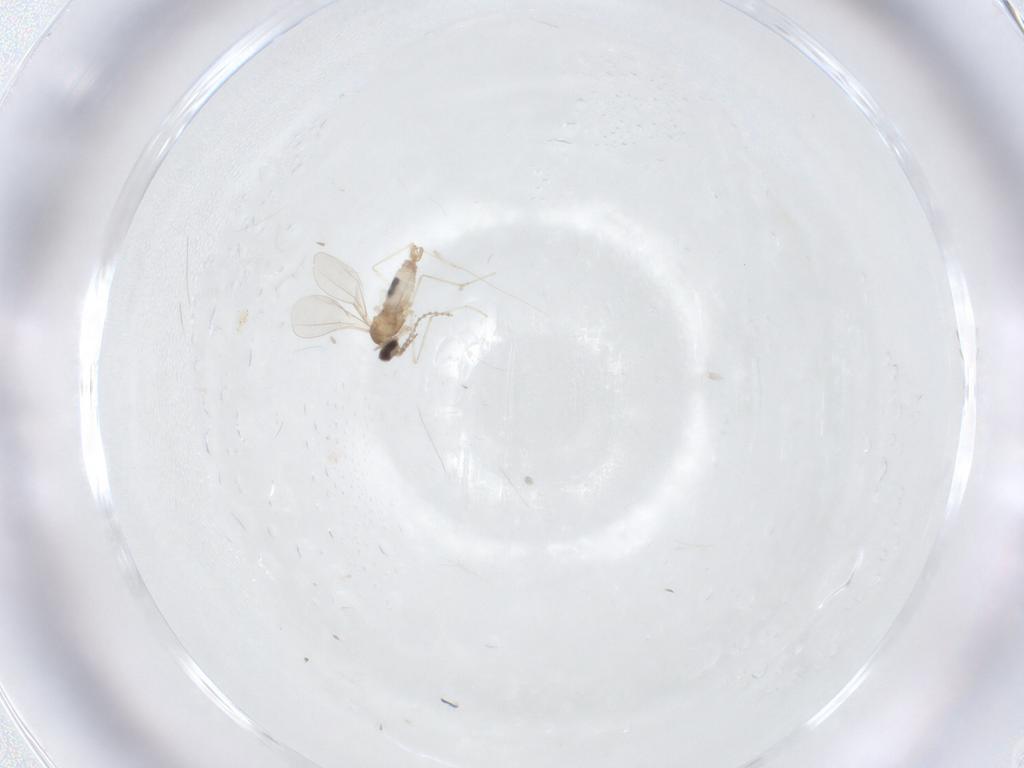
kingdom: Animalia
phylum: Arthropoda
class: Insecta
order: Diptera
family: Cecidomyiidae
